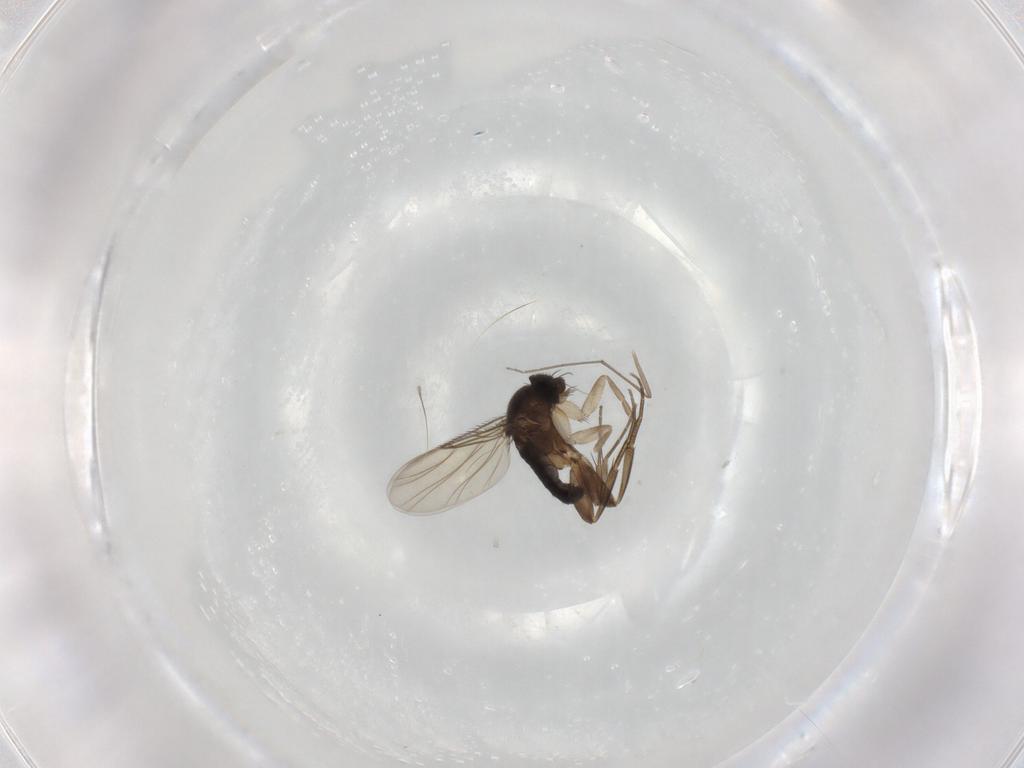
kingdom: Animalia
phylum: Arthropoda
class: Insecta
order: Diptera
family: Phoridae
